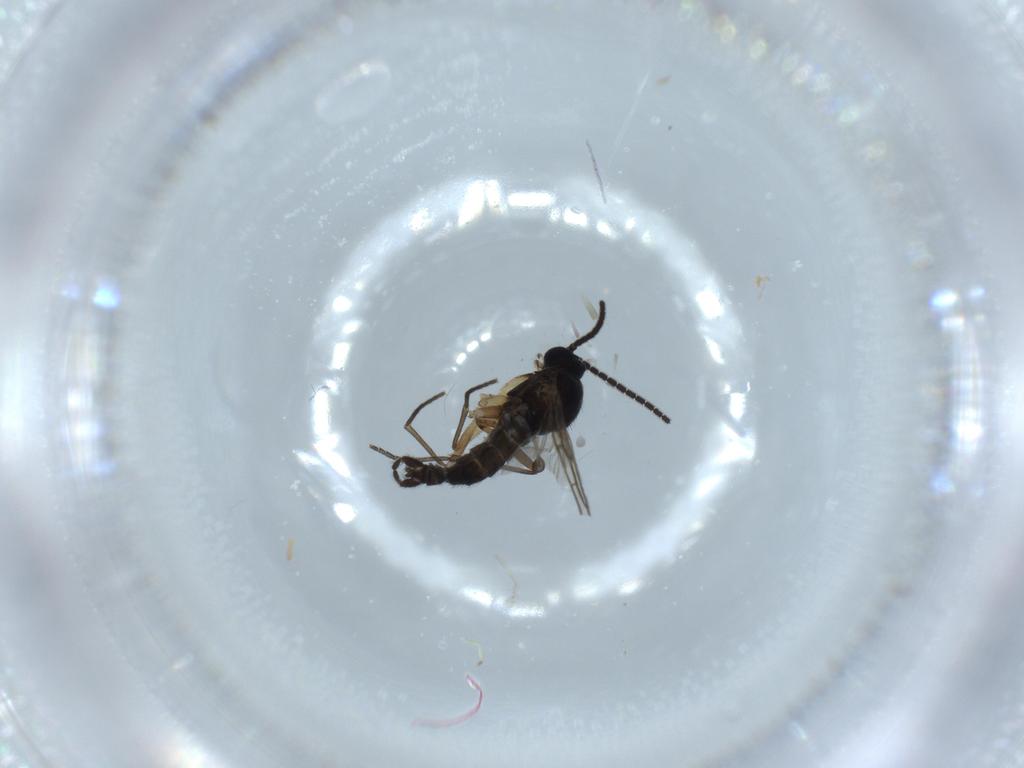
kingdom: Animalia
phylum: Arthropoda
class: Insecta
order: Diptera
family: Sciaridae
